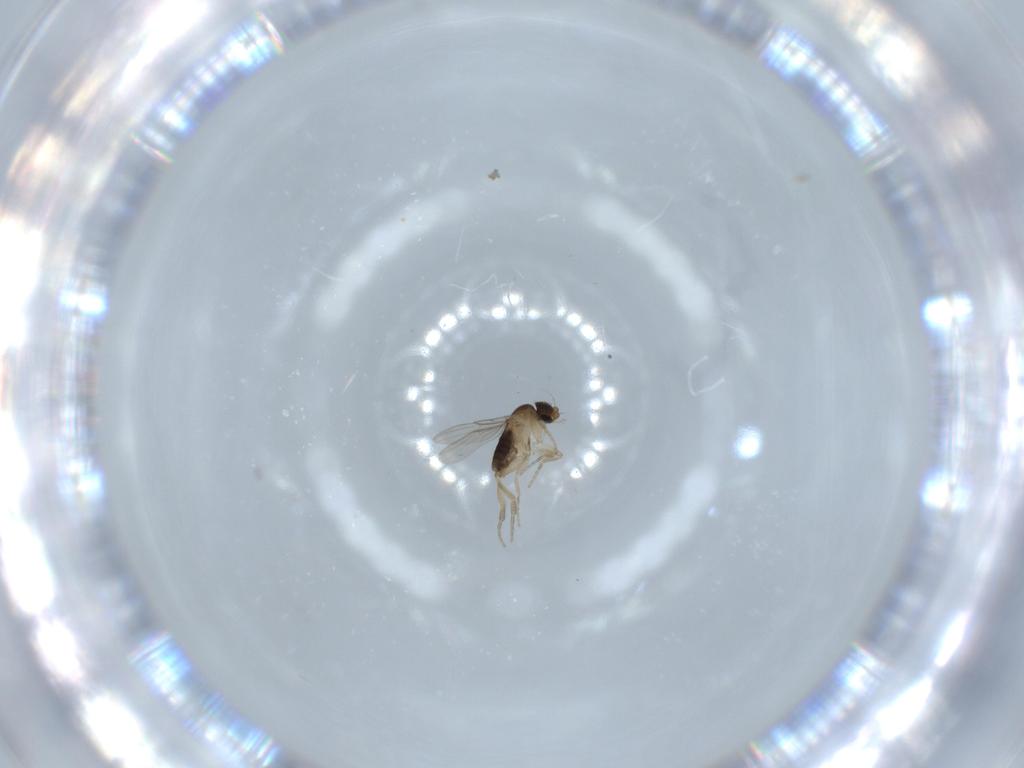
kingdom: Animalia
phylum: Arthropoda
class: Insecta
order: Diptera
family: Phoridae
